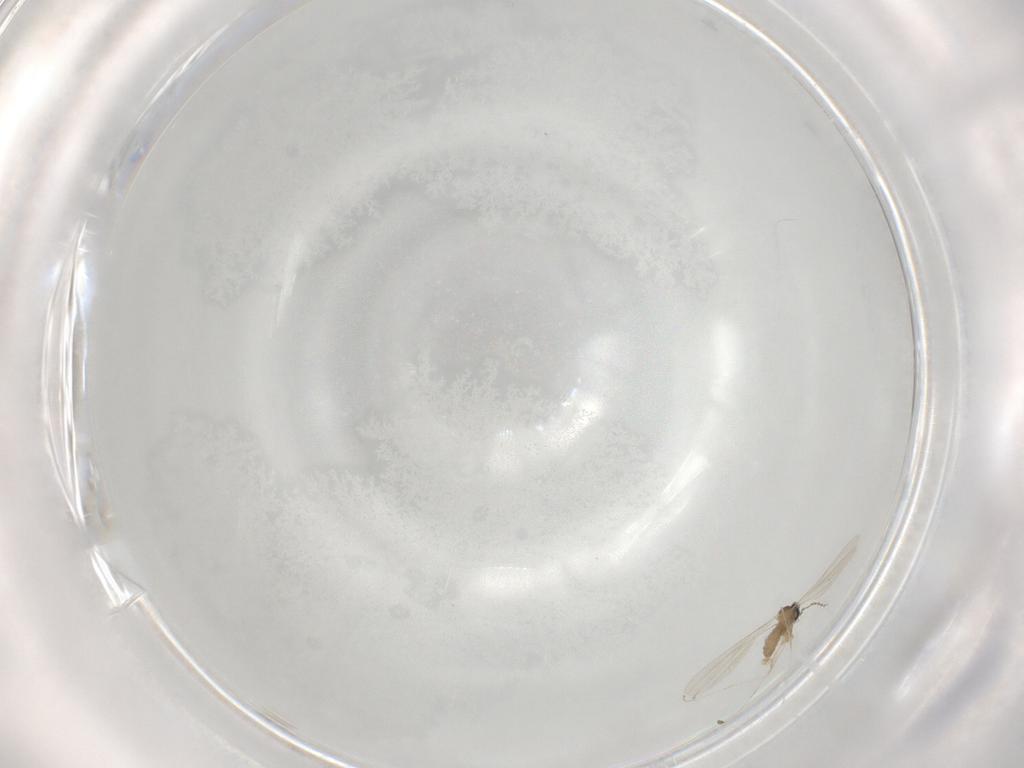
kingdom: Animalia
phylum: Arthropoda
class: Insecta
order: Diptera
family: Cecidomyiidae
